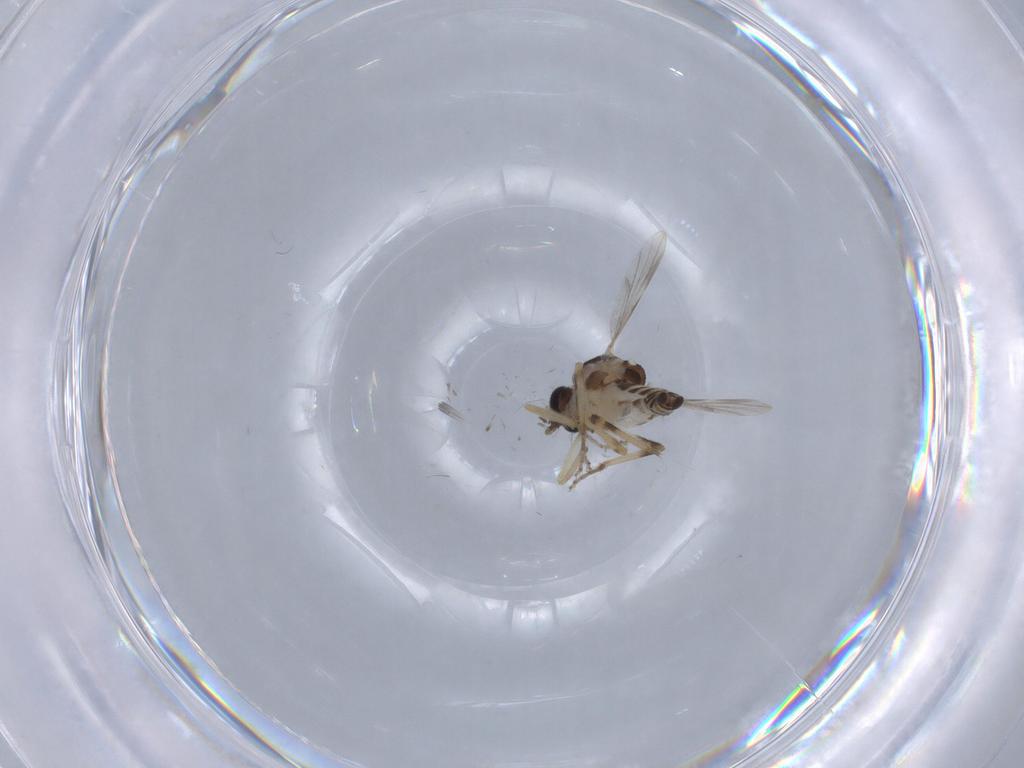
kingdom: Animalia
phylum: Arthropoda
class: Insecta
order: Diptera
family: Ceratopogonidae
